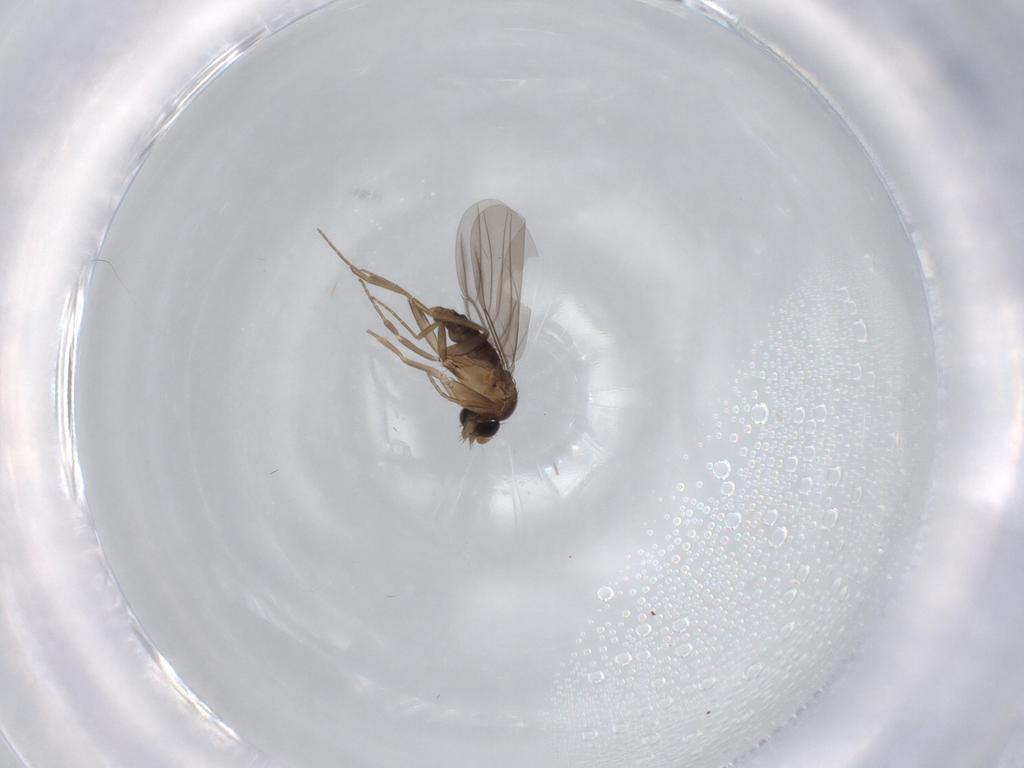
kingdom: Animalia
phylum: Arthropoda
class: Insecta
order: Diptera
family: Phoridae
